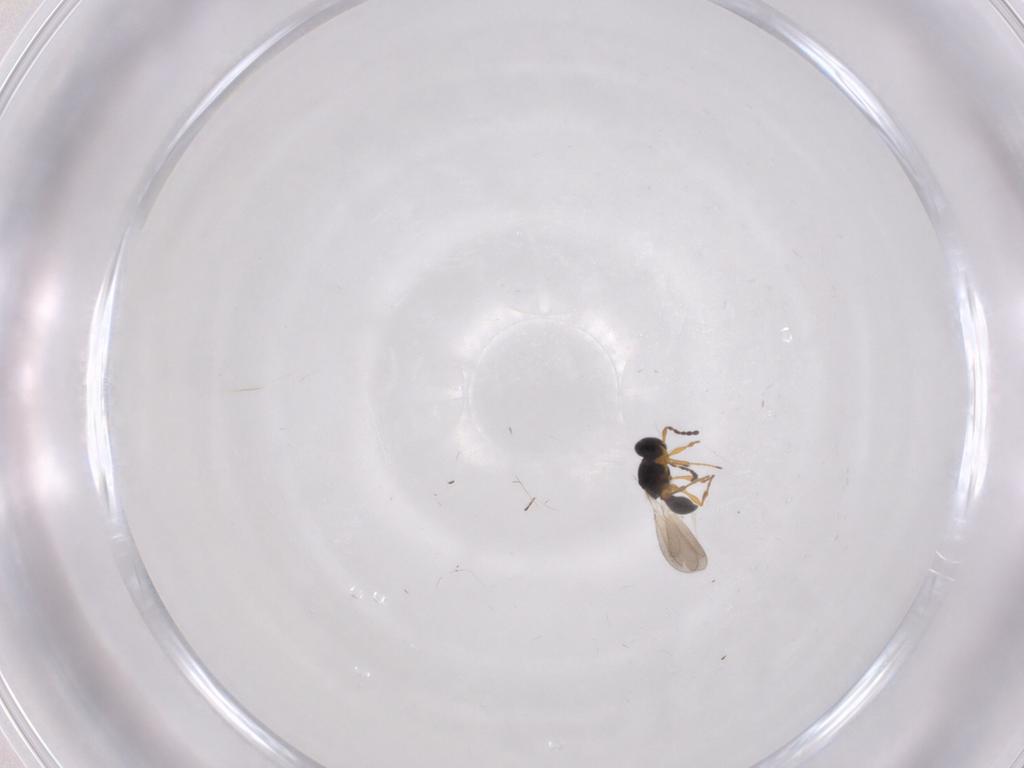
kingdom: Animalia
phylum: Arthropoda
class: Insecta
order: Hymenoptera
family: Platygastridae
